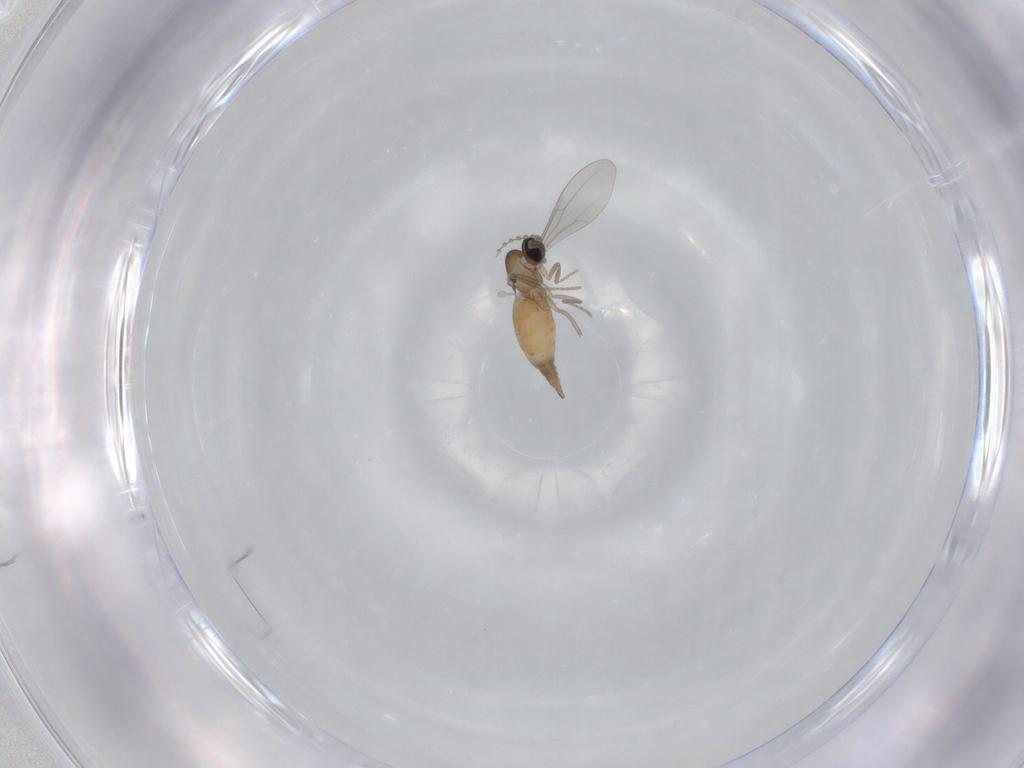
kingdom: Animalia
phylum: Arthropoda
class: Insecta
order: Diptera
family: Cecidomyiidae
